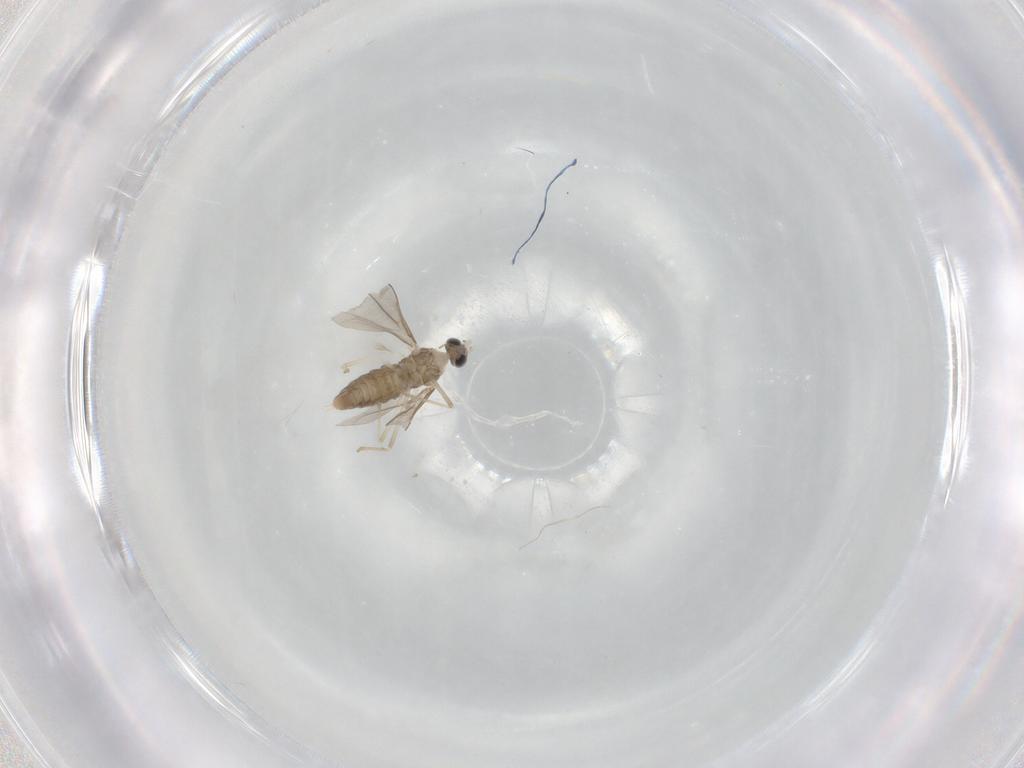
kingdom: Animalia
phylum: Arthropoda
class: Insecta
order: Diptera
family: Cecidomyiidae
